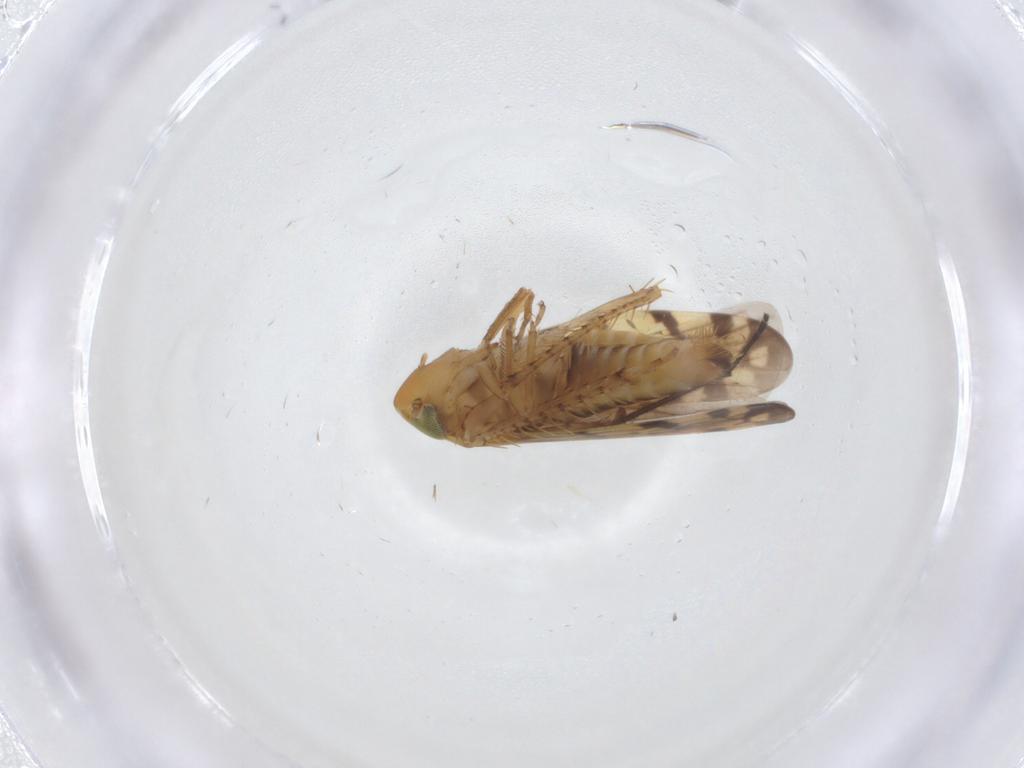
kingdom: Animalia
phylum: Arthropoda
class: Insecta
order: Hemiptera
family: Cicadellidae
